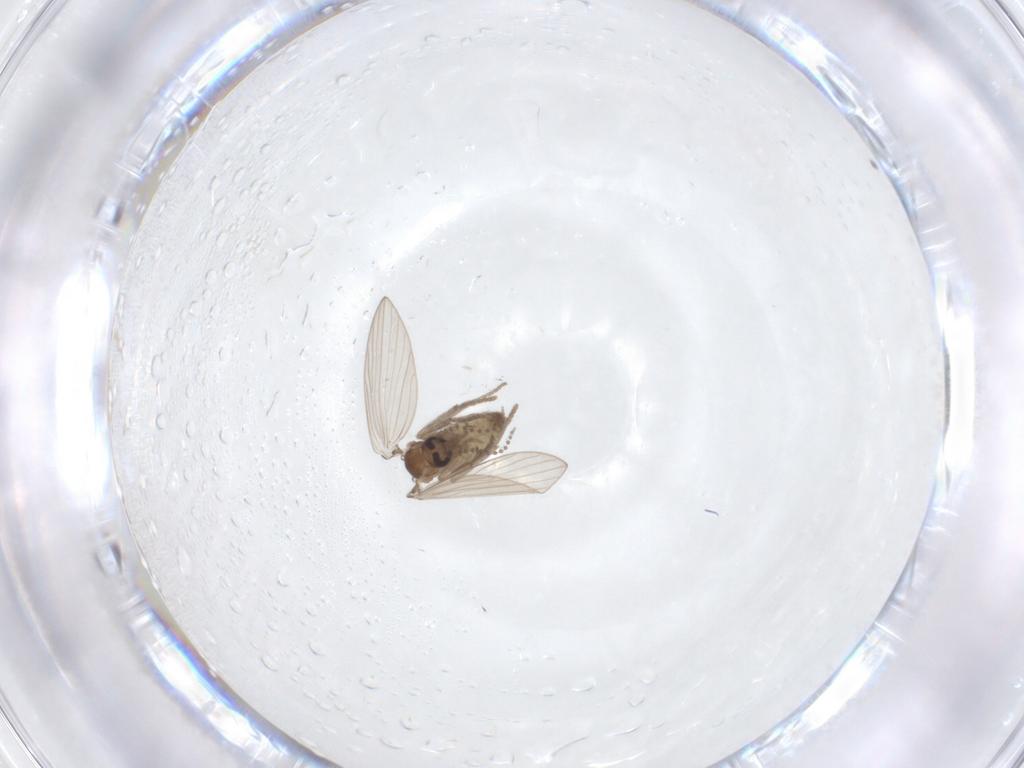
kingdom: Animalia
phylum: Arthropoda
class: Insecta
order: Diptera
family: Psychodidae
